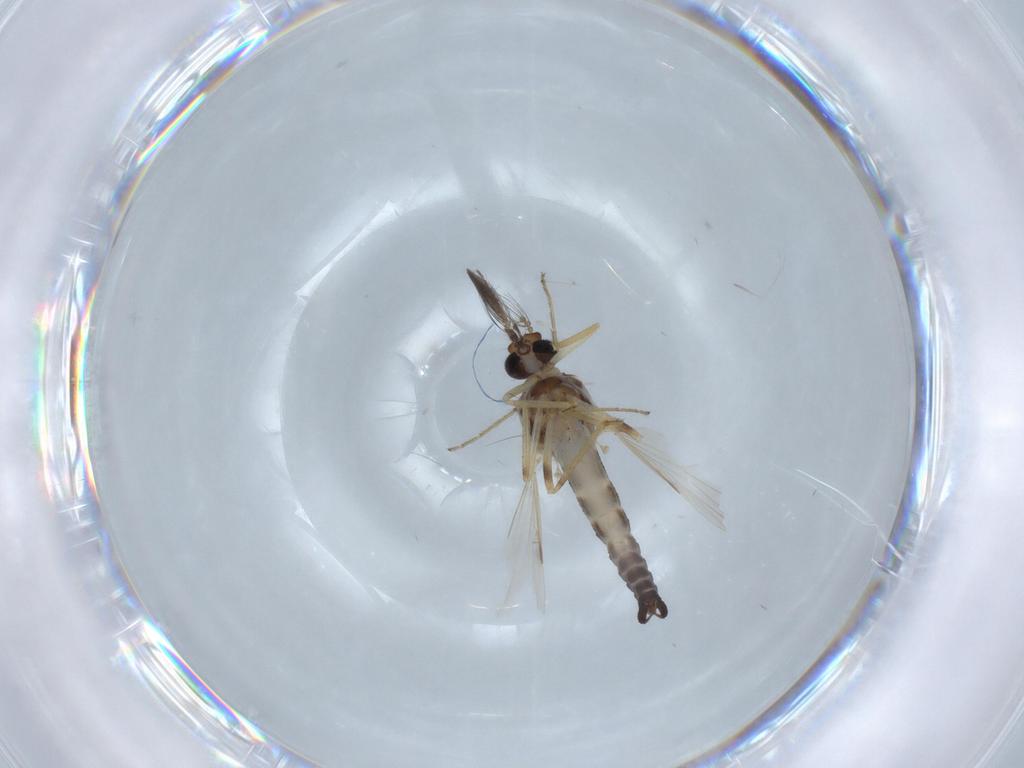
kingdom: Animalia
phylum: Arthropoda
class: Insecta
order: Diptera
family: Ceratopogonidae
